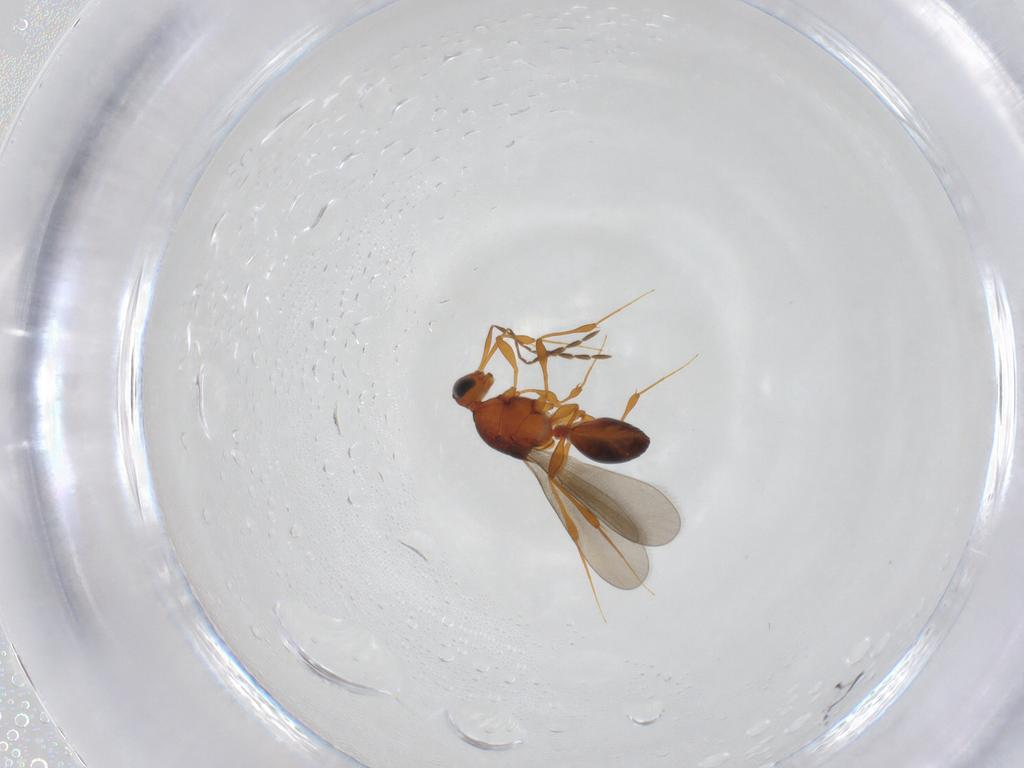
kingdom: Animalia
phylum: Arthropoda
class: Insecta
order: Hymenoptera
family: Platygastridae
